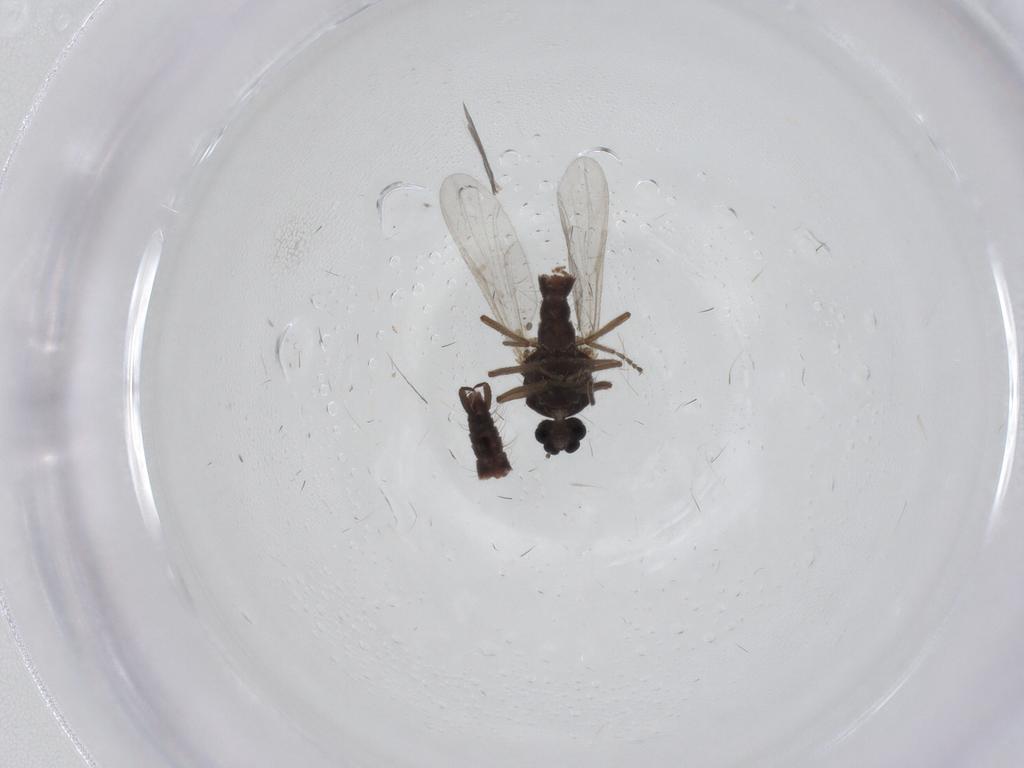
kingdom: Animalia
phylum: Arthropoda
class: Insecta
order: Diptera
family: Ceratopogonidae
